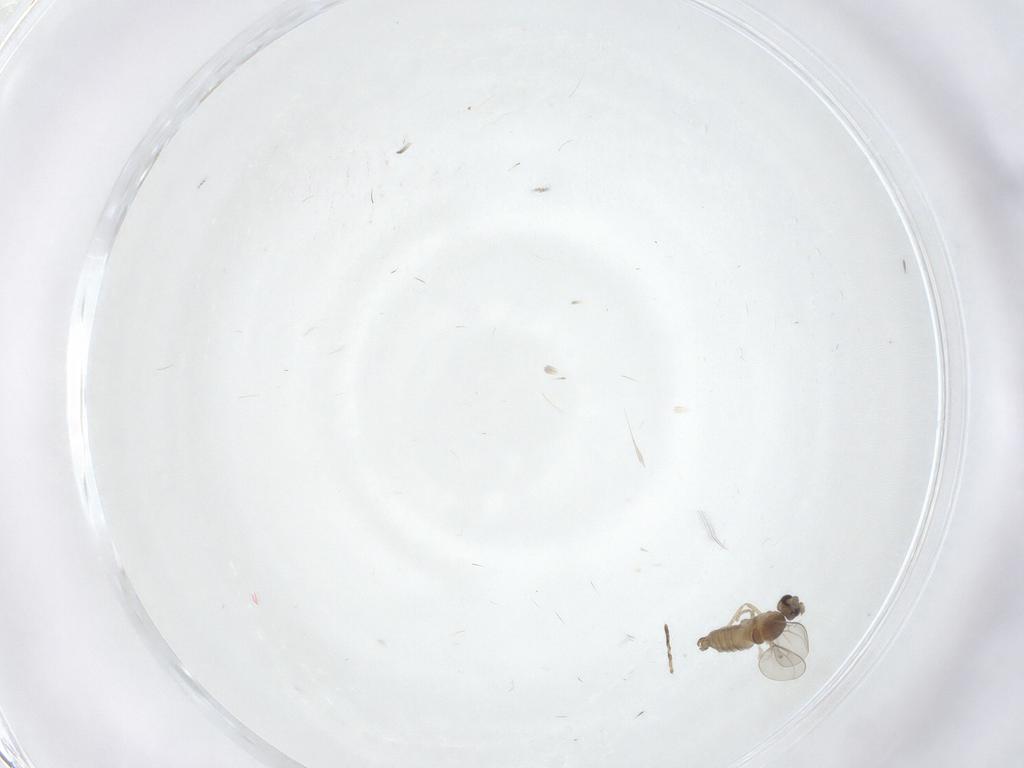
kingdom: Animalia
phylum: Arthropoda
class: Insecta
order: Diptera
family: Cecidomyiidae
